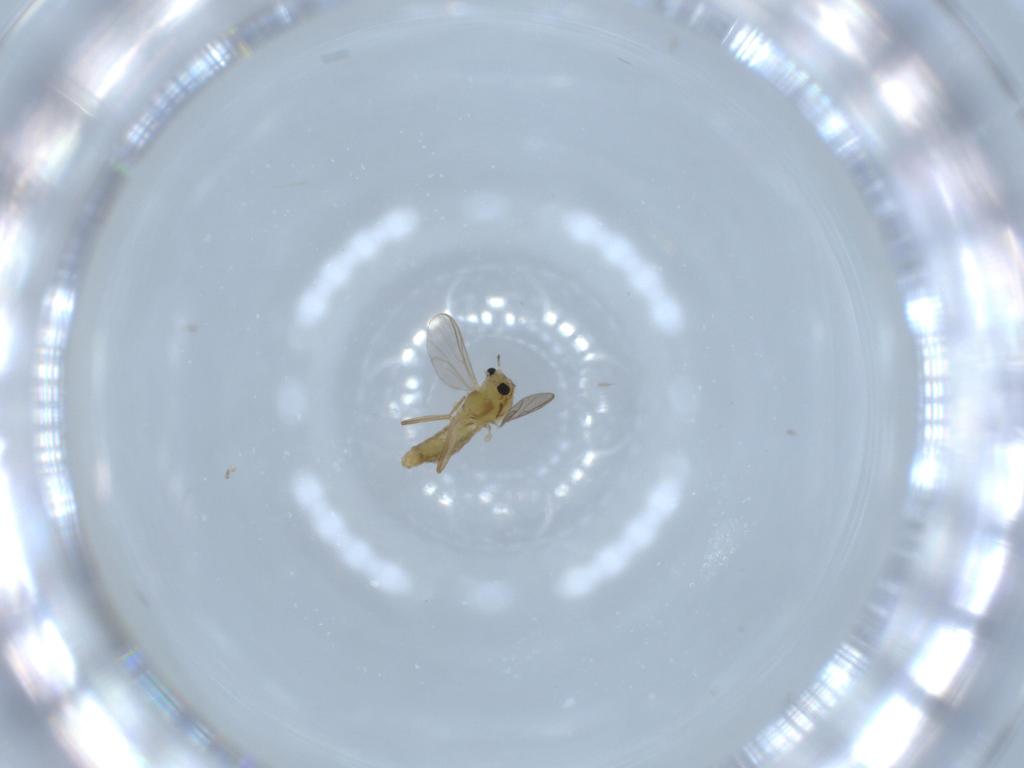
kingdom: Animalia
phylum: Arthropoda
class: Insecta
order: Diptera
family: Chironomidae
